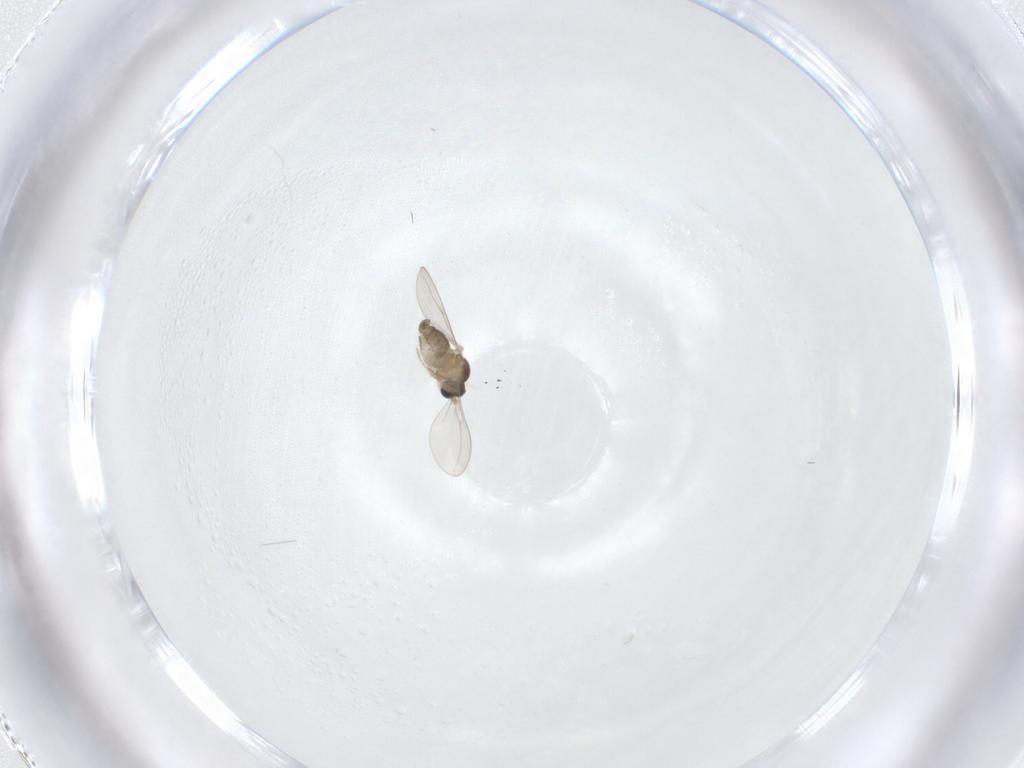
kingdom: Animalia
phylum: Arthropoda
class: Insecta
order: Diptera
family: Cecidomyiidae
